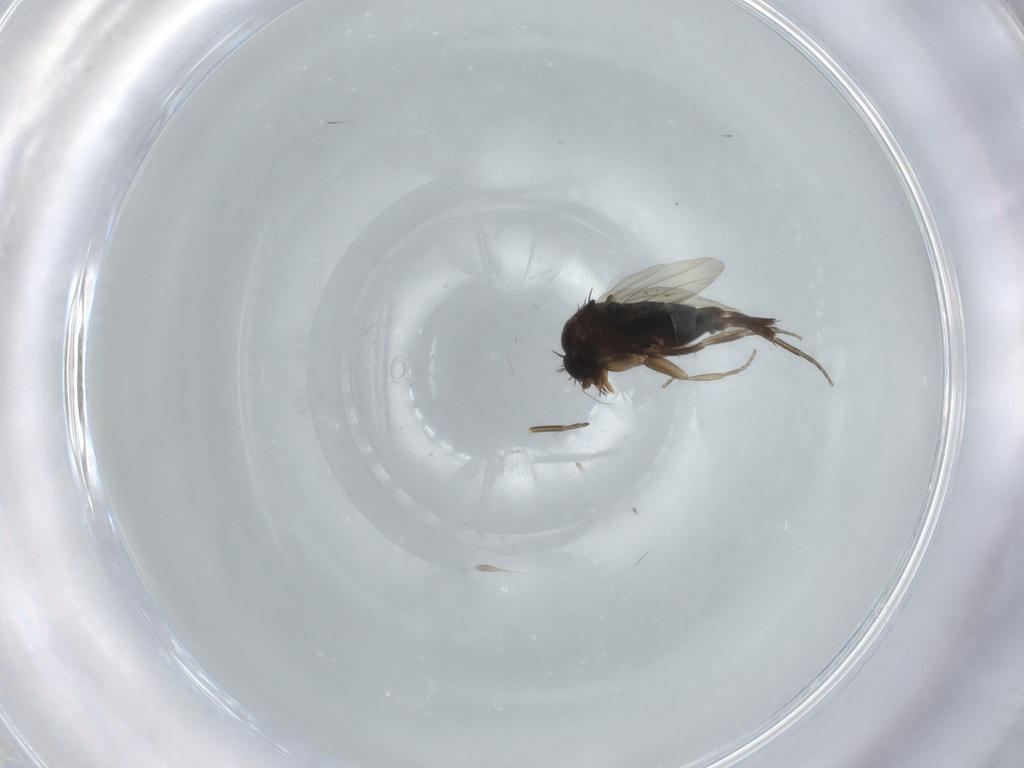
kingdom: Animalia
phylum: Arthropoda
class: Insecta
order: Diptera
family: Phoridae
